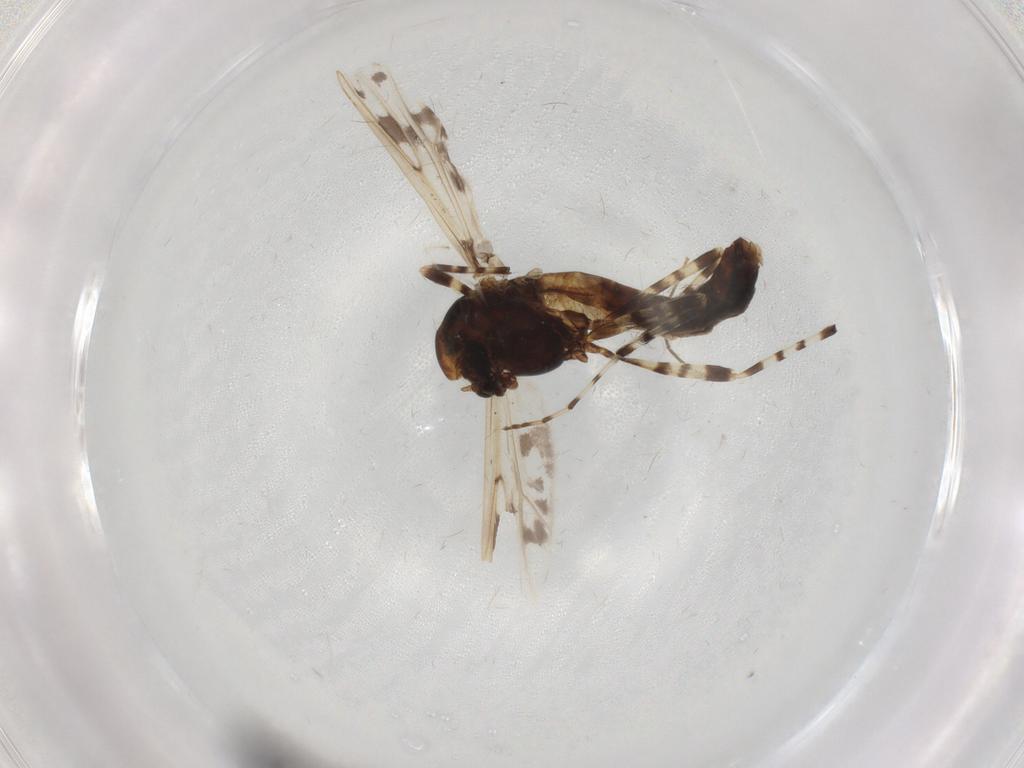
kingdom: Animalia
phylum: Arthropoda
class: Insecta
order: Diptera
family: Chironomidae
